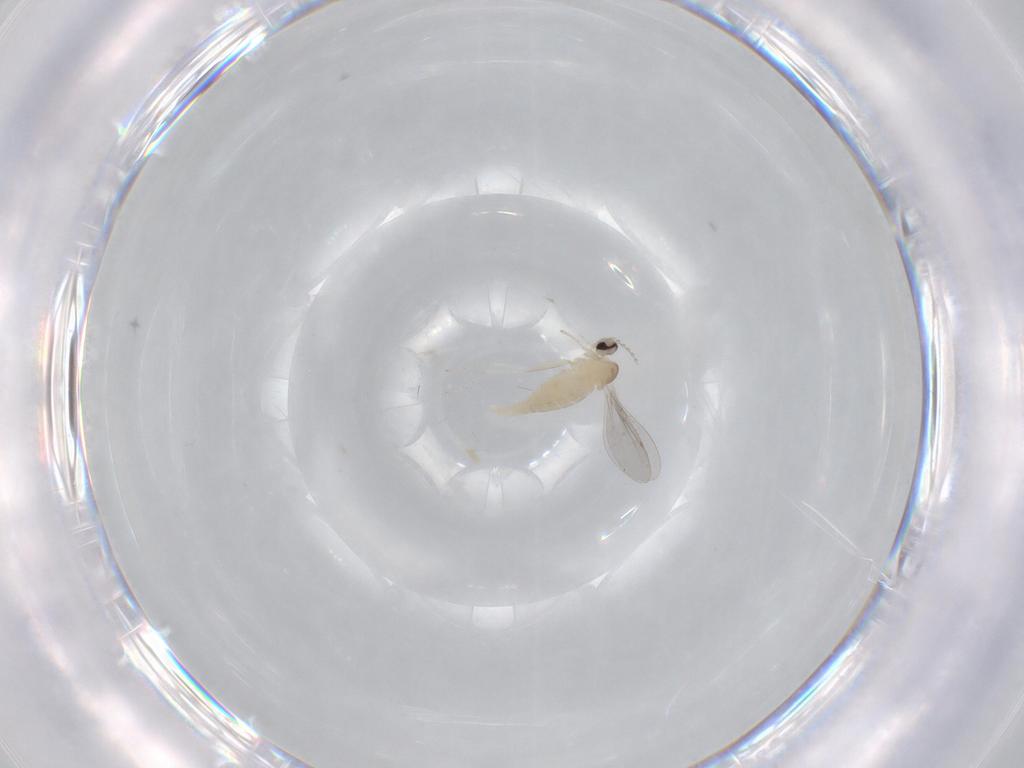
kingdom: Animalia
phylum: Arthropoda
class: Insecta
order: Diptera
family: Cecidomyiidae
